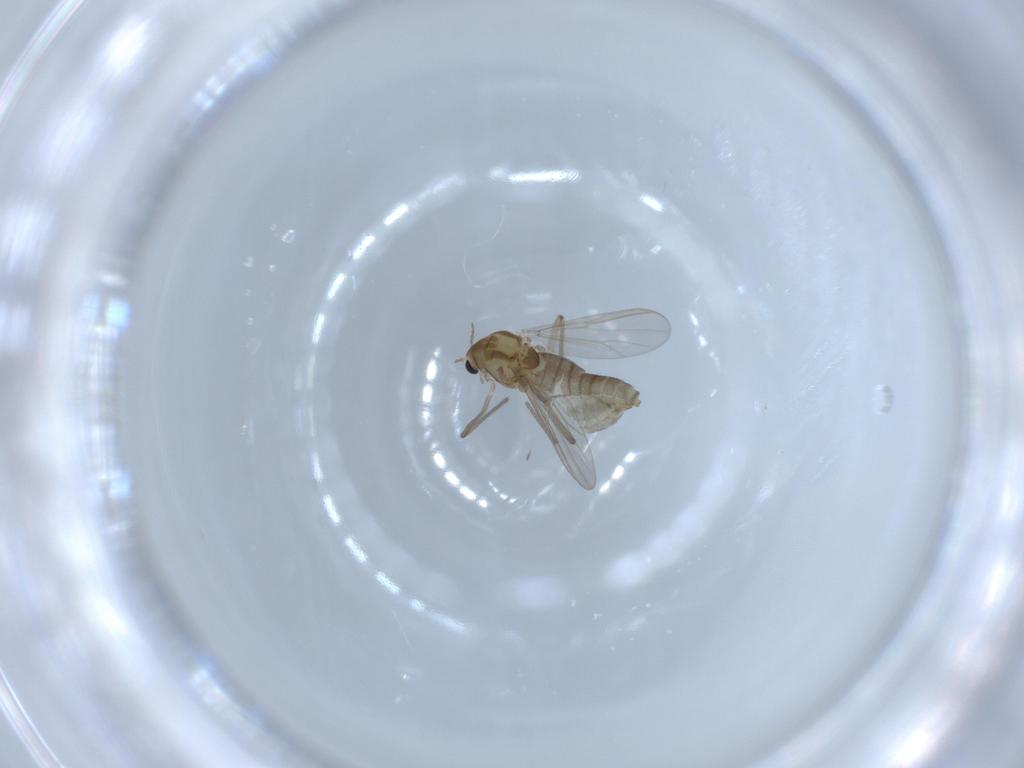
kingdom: Animalia
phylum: Arthropoda
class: Insecta
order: Diptera
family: Chironomidae
